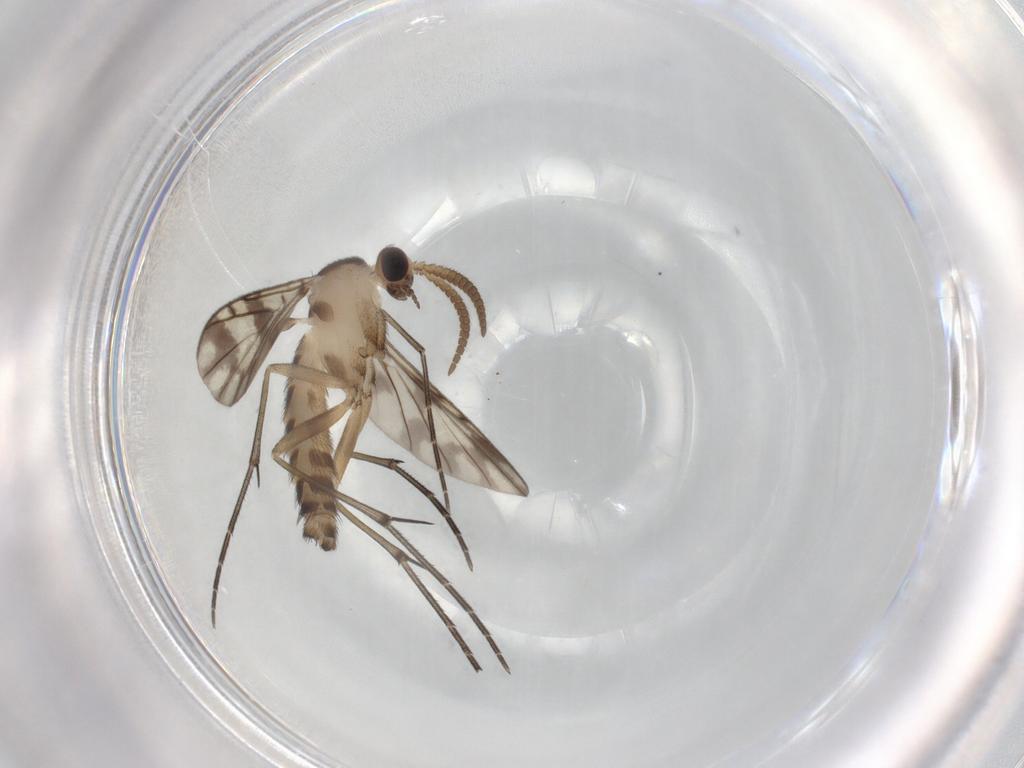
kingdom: Animalia
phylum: Arthropoda
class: Insecta
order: Diptera
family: Keroplatidae
